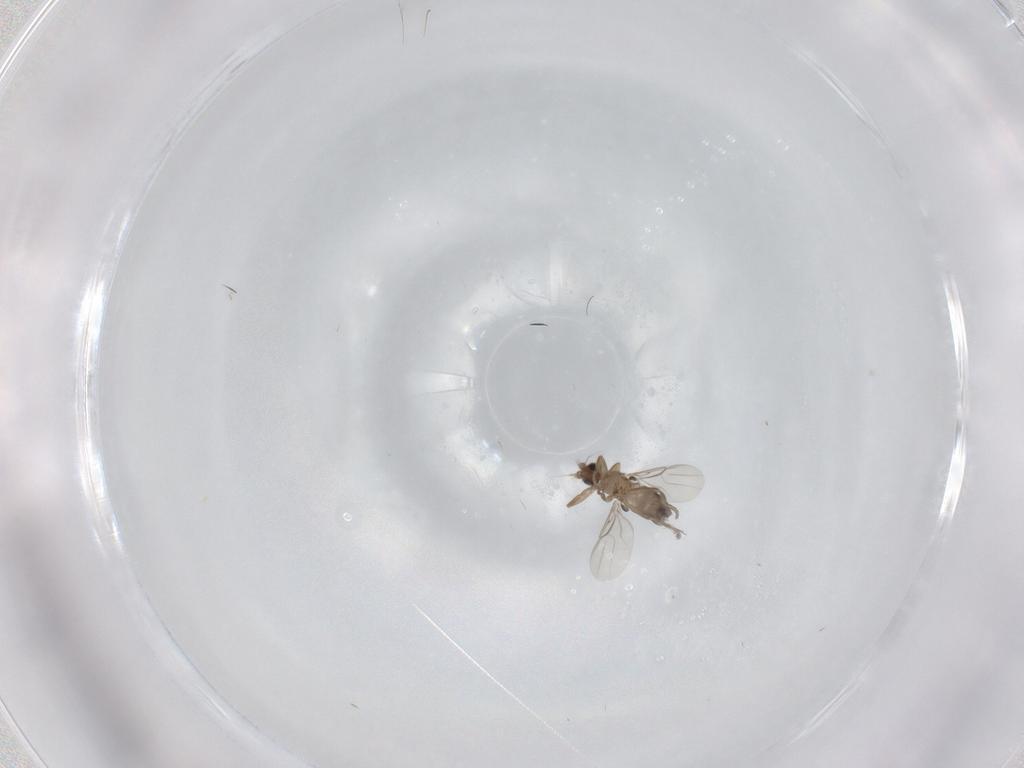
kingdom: Animalia
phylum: Arthropoda
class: Insecta
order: Diptera
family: Phoridae
